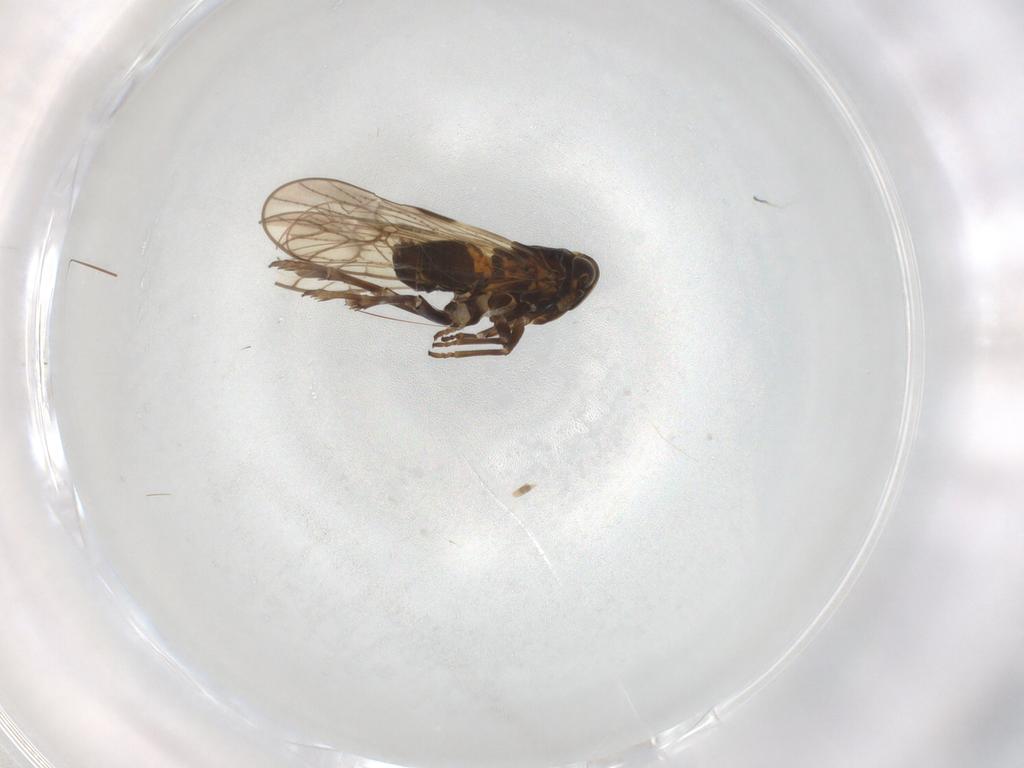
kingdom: Animalia
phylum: Arthropoda
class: Insecta
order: Hemiptera
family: Delphacidae
